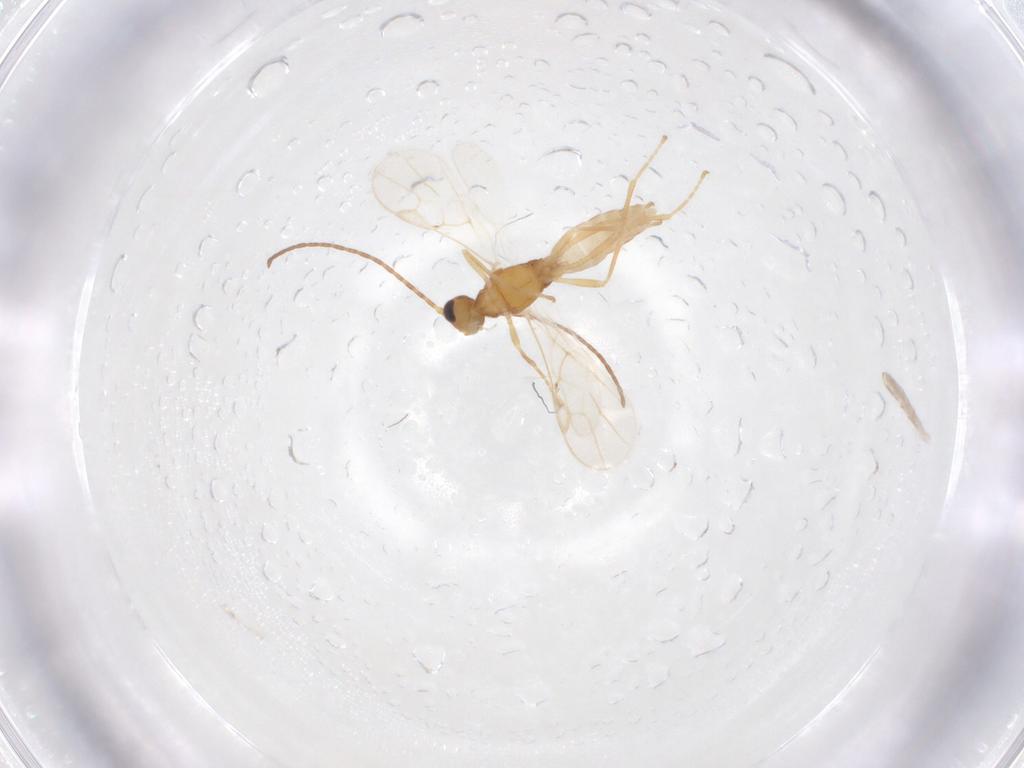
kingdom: Animalia
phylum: Arthropoda
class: Insecta
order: Hymenoptera
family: Braconidae
